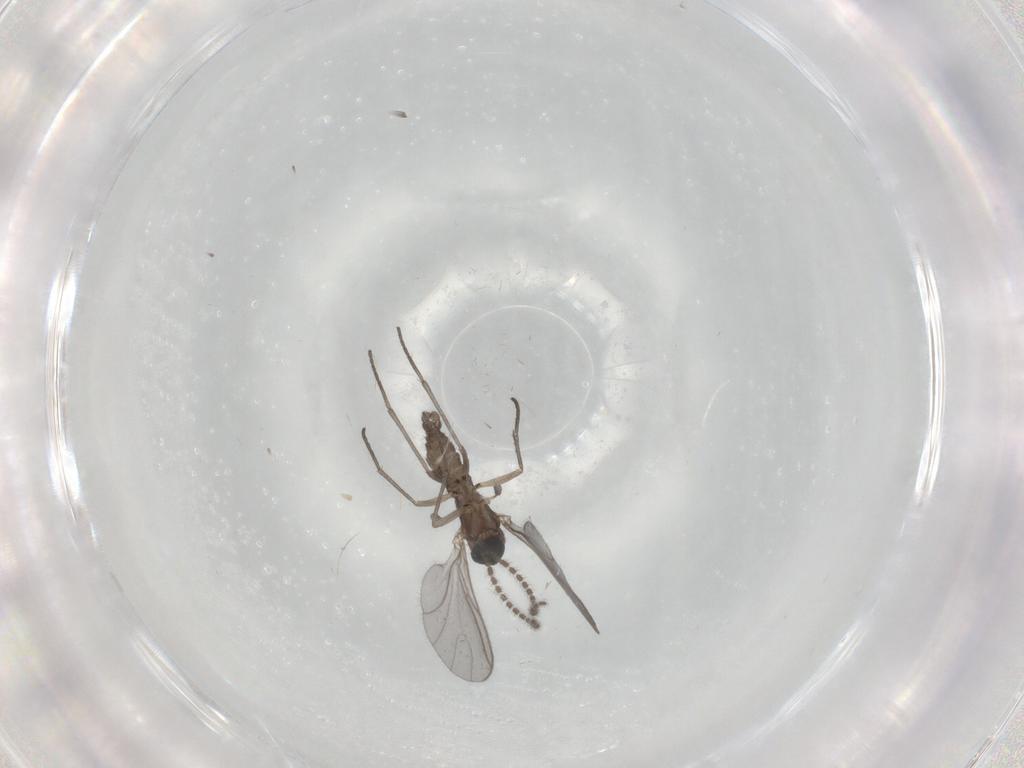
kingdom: Animalia
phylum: Arthropoda
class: Insecta
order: Diptera
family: Sciaridae
